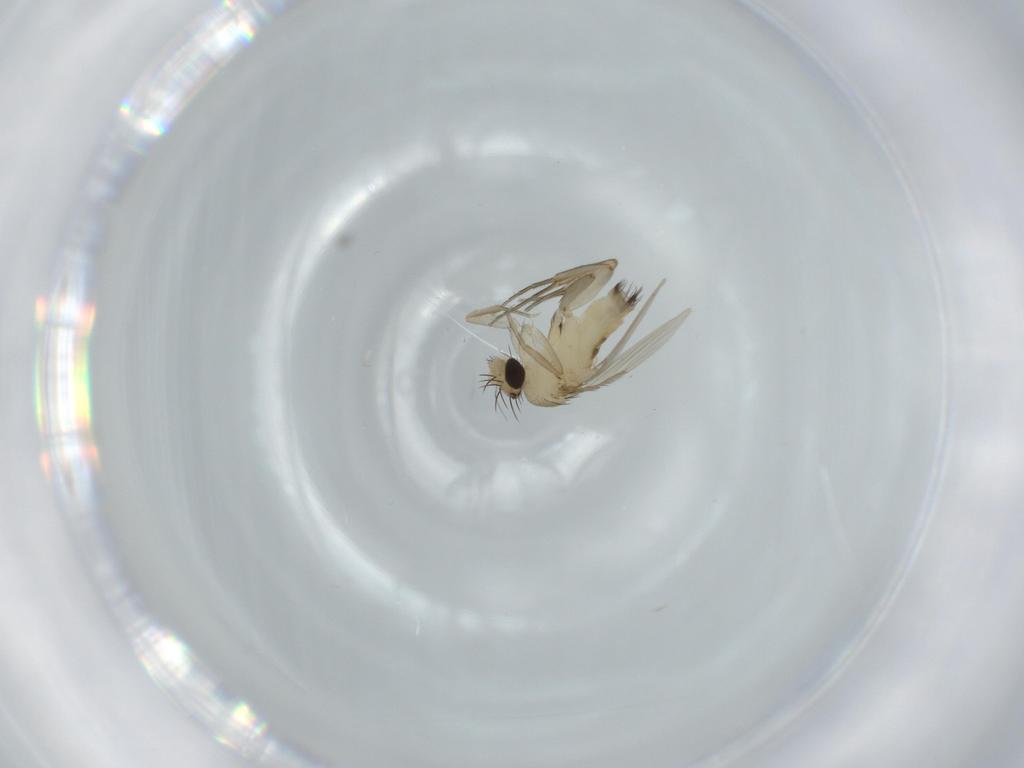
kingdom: Animalia
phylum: Arthropoda
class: Insecta
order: Diptera
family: Phoridae
